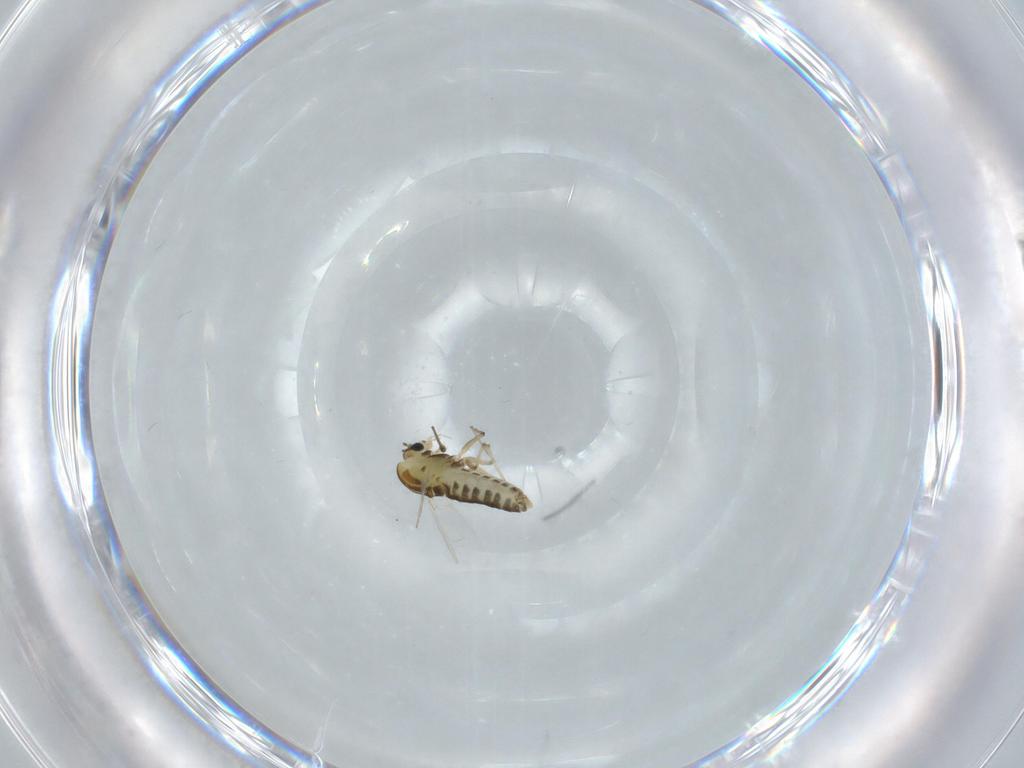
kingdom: Animalia
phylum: Arthropoda
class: Insecta
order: Diptera
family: Chironomidae
